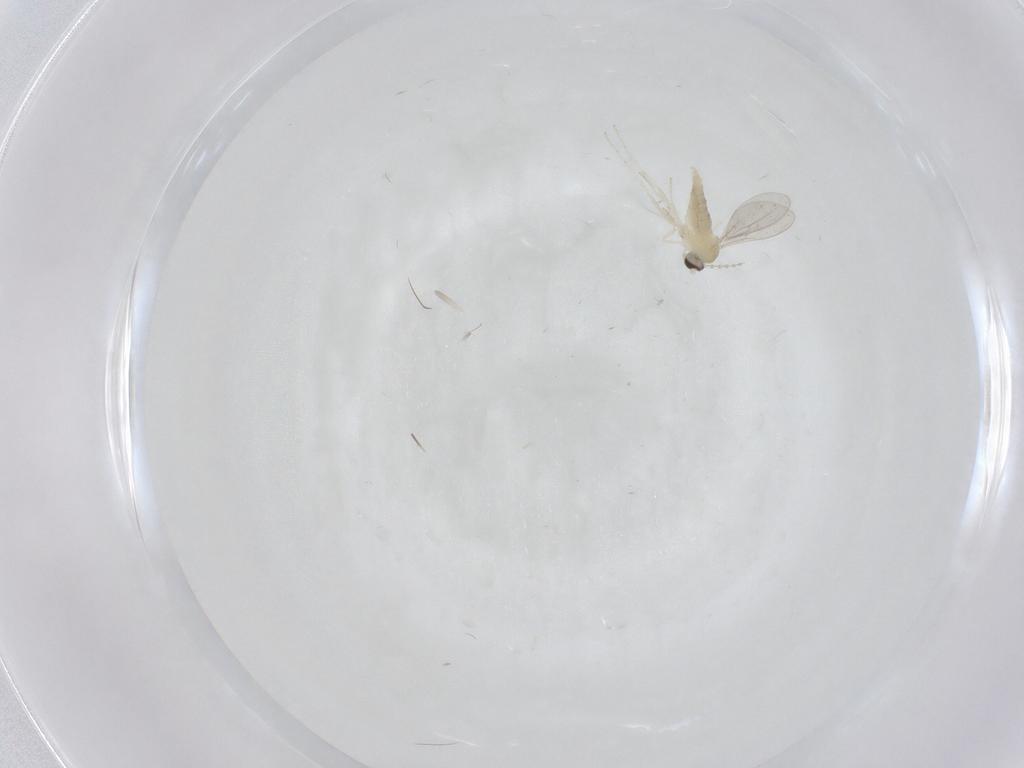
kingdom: Animalia
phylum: Arthropoda
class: Insecta
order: Diptera
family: Cecidomyiidae
